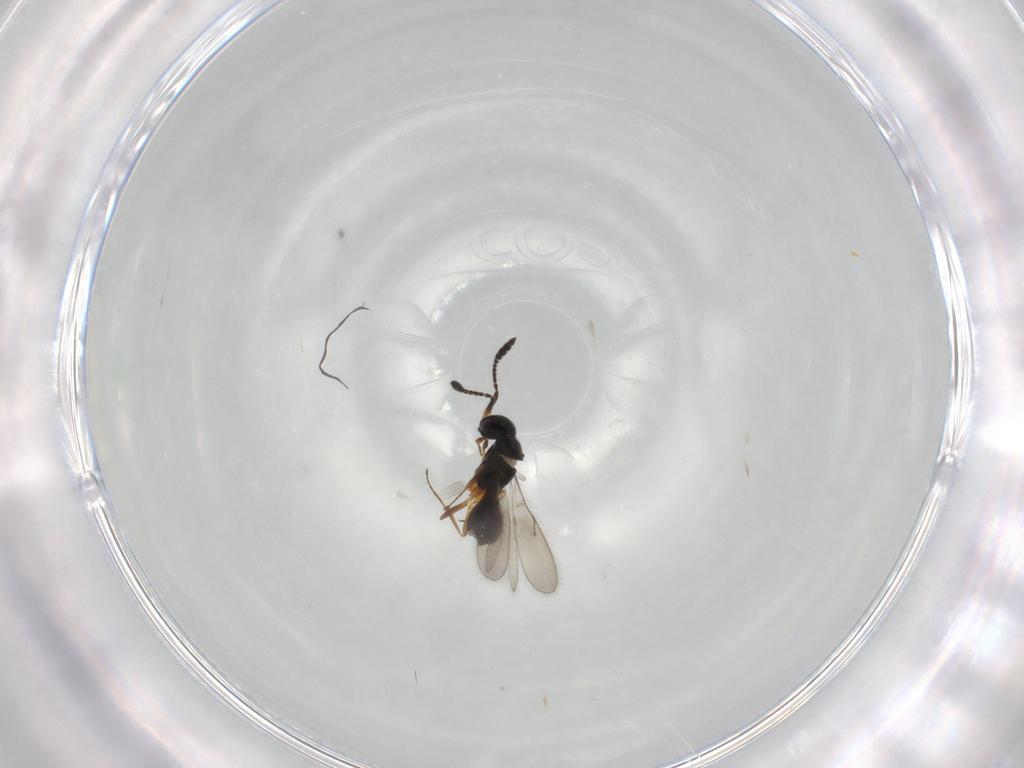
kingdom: Animalia
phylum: Arthropoda
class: Insecta
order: Hymenoptera
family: Scelionidae
